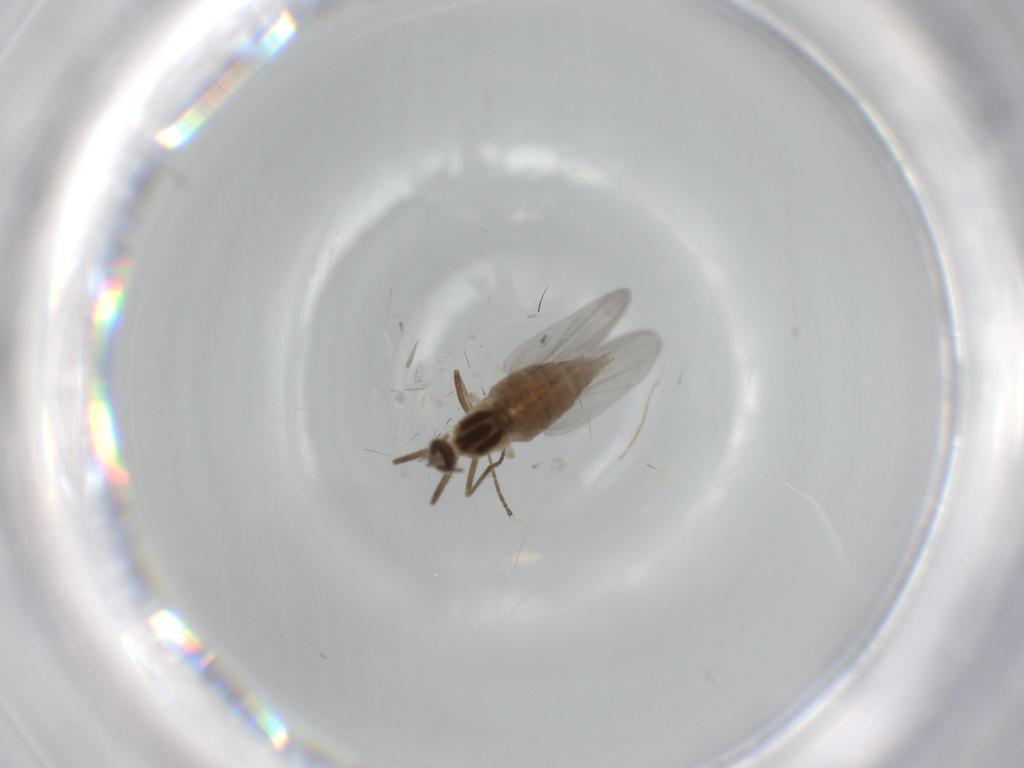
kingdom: Animalia
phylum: Arthropoda
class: Insecta
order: Diptera
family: Cecidomyiidae
